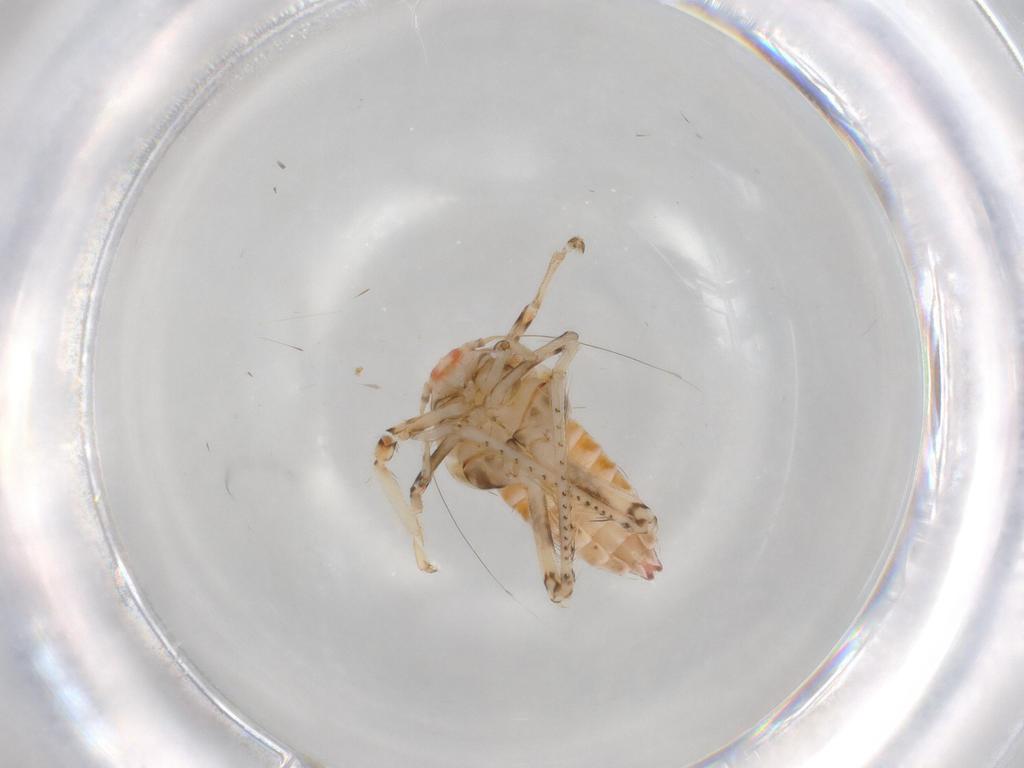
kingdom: Animalia
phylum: Arthropoda
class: Insecta
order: Hemiptera
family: Cicadellidae
